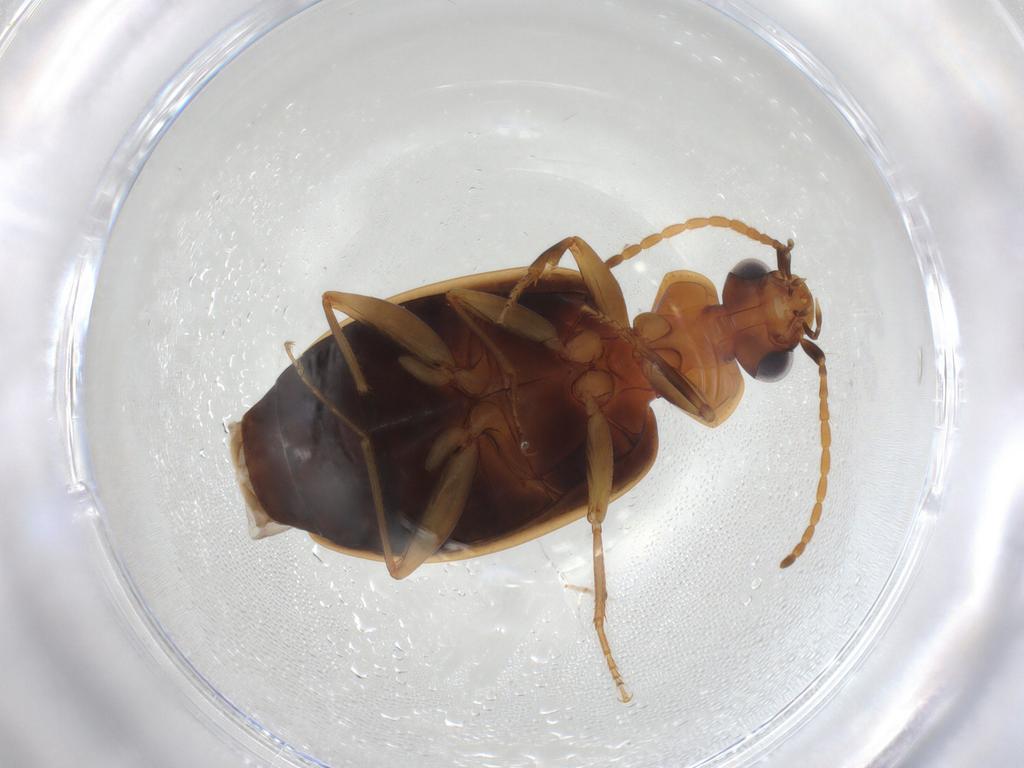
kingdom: Animalia
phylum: Arthropoda
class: Insecta
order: Coleoptera
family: Carabidae
